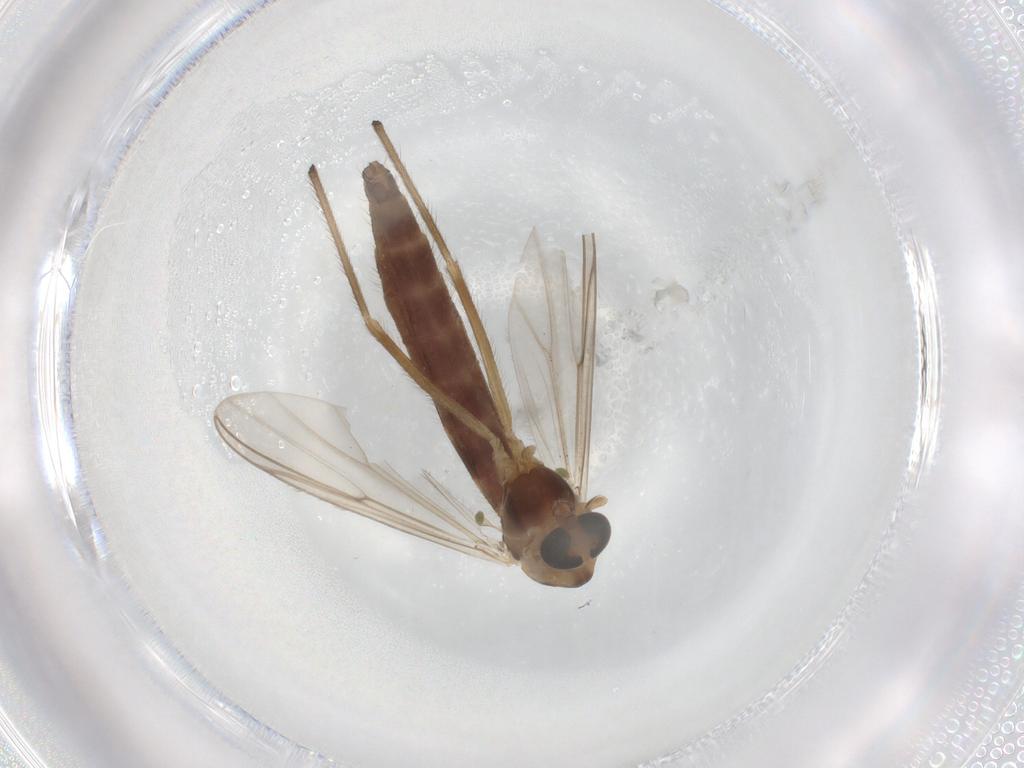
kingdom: Animalia
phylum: Arthropoda
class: Insecta
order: Diptera
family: Chironomidae
